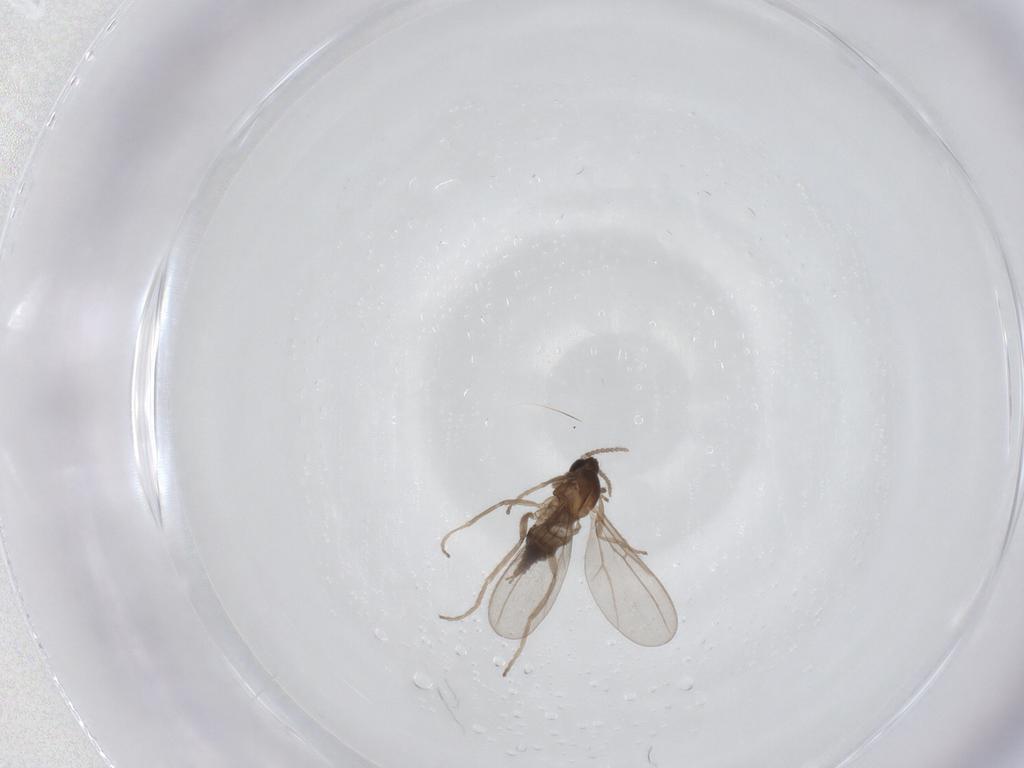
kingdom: Animalia
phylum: Arthropoda
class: Insecta
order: Diptera
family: Cecidomyiidae
